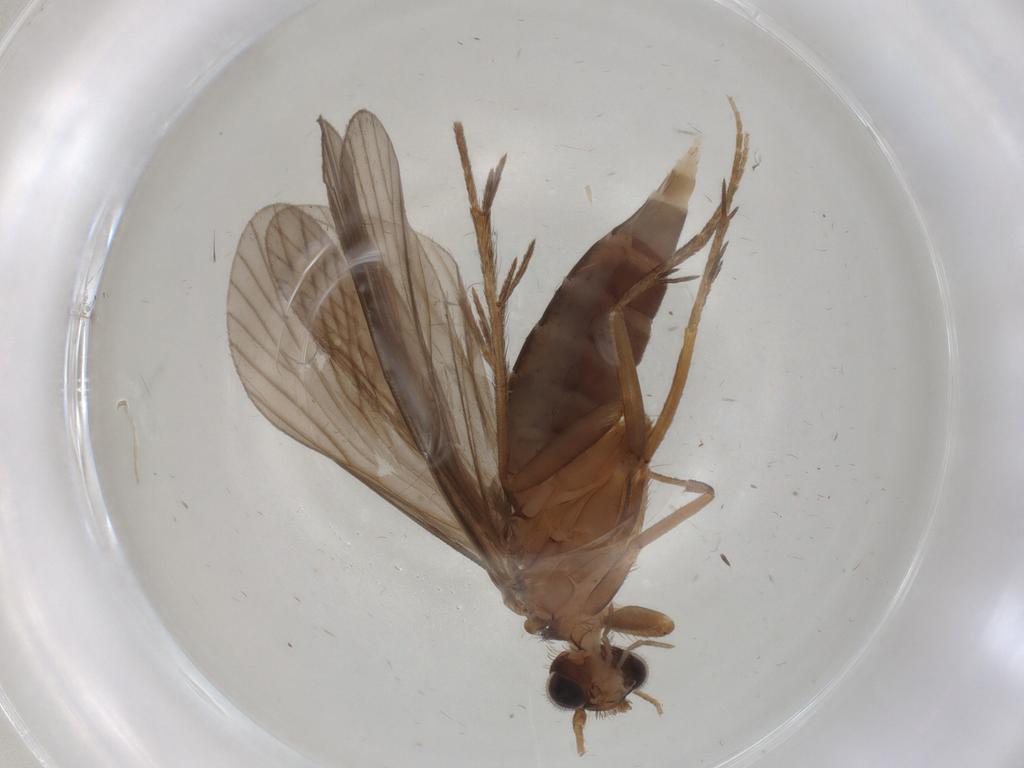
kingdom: Animalia
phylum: Arthropoda
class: Insecta
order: Trichoptera
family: Philopotamidae
